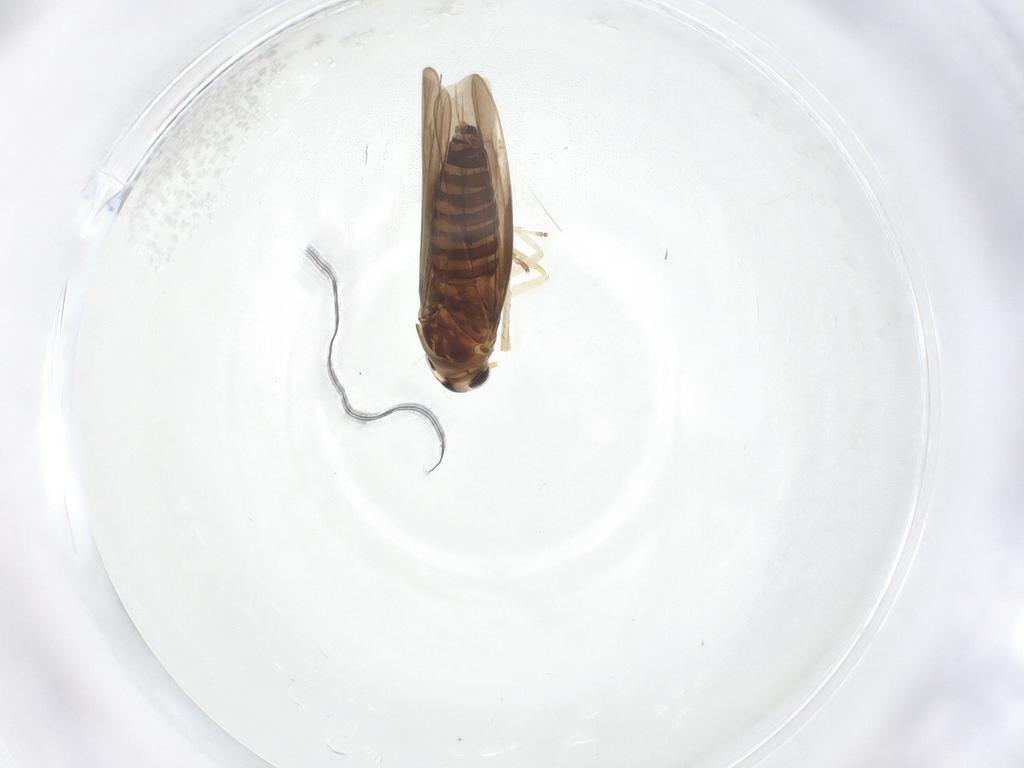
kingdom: Animalia
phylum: Arthropoda
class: Insecta
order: Hemiptera
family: Cicadellidae
